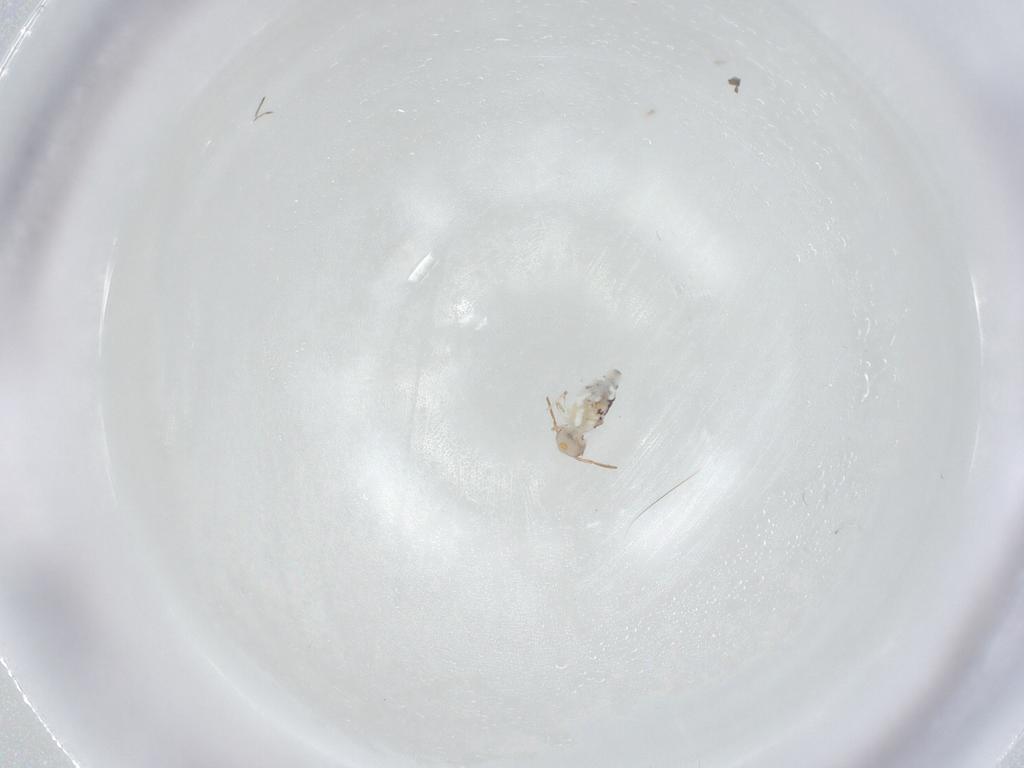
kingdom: Animalia
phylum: Arthropoda
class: Collembola
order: Symphypleona
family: Bourletiellidae
